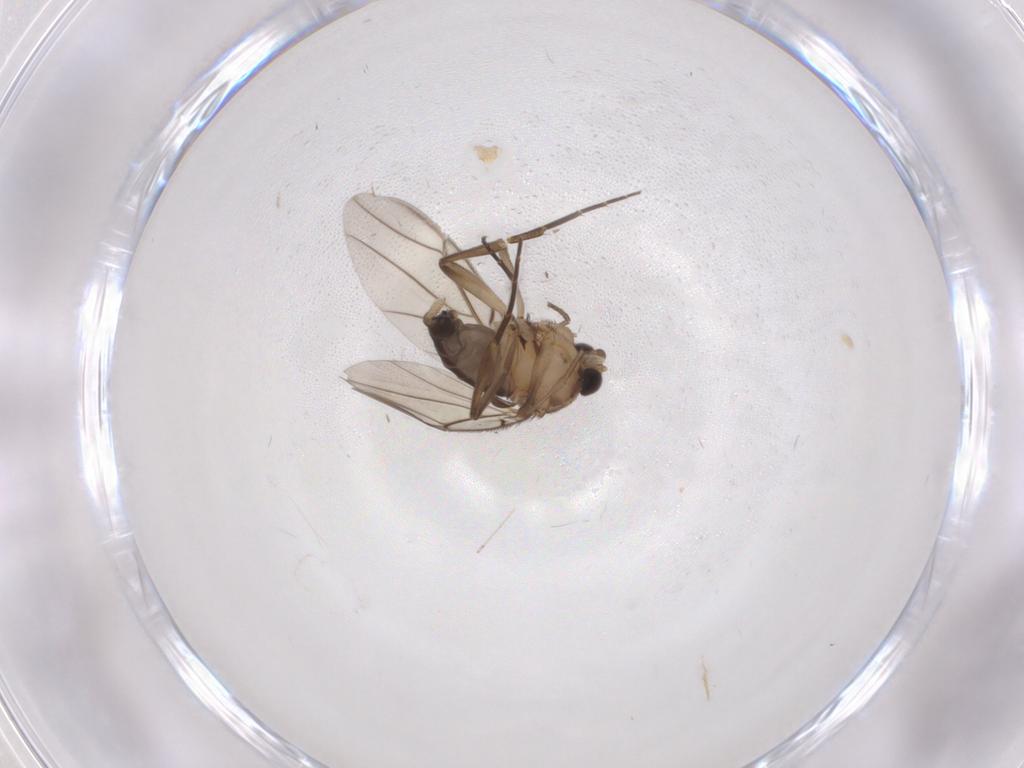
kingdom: Animalia
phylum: Arthropoda
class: Insecta
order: Diptera
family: Phoridae
